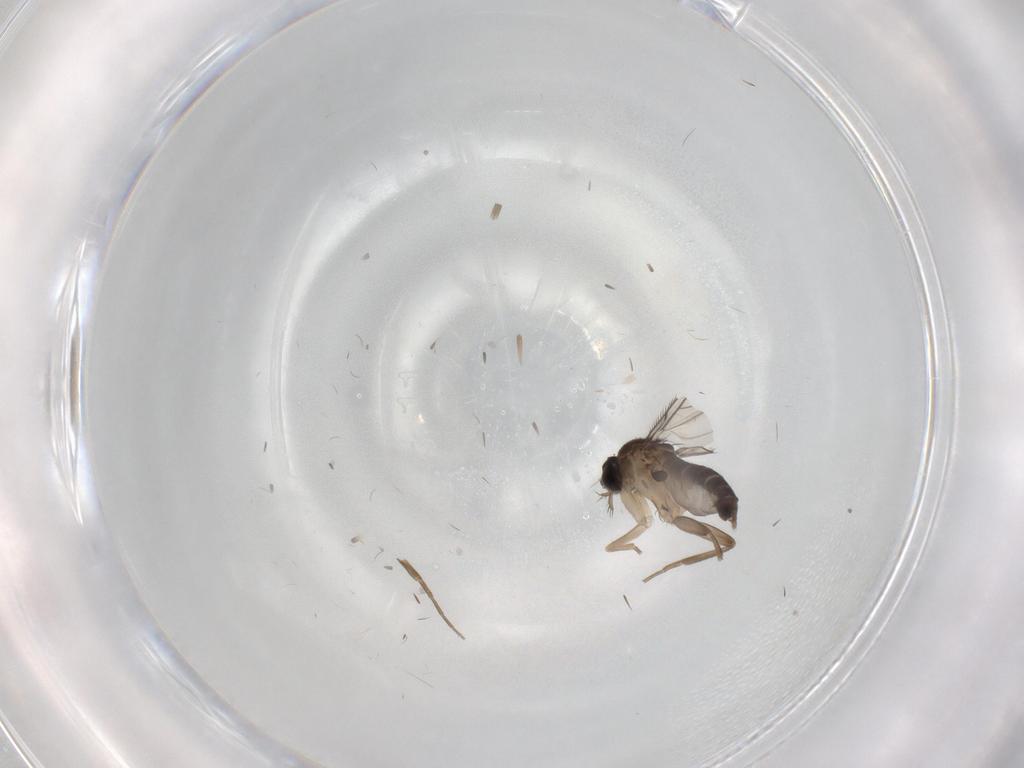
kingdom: Animalia
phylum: Arthropoda
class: Insecta
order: Diptera
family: Phoridae
